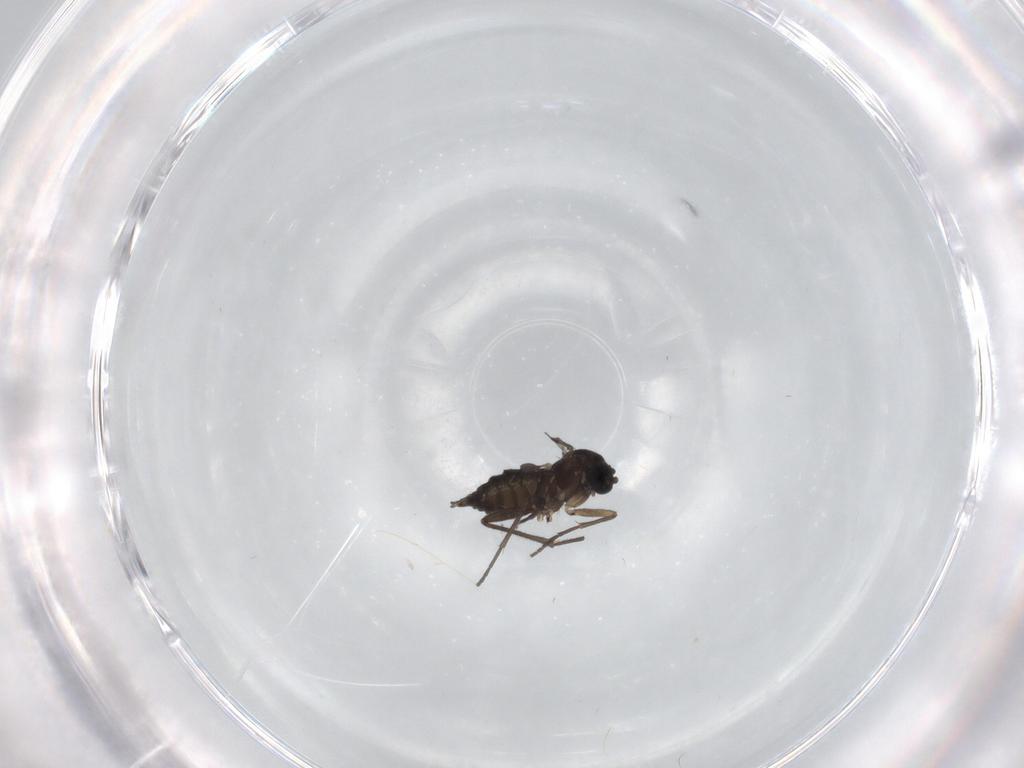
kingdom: Animalia
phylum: Arthropoda
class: Insecta
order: Diptera
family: Sciaridae
